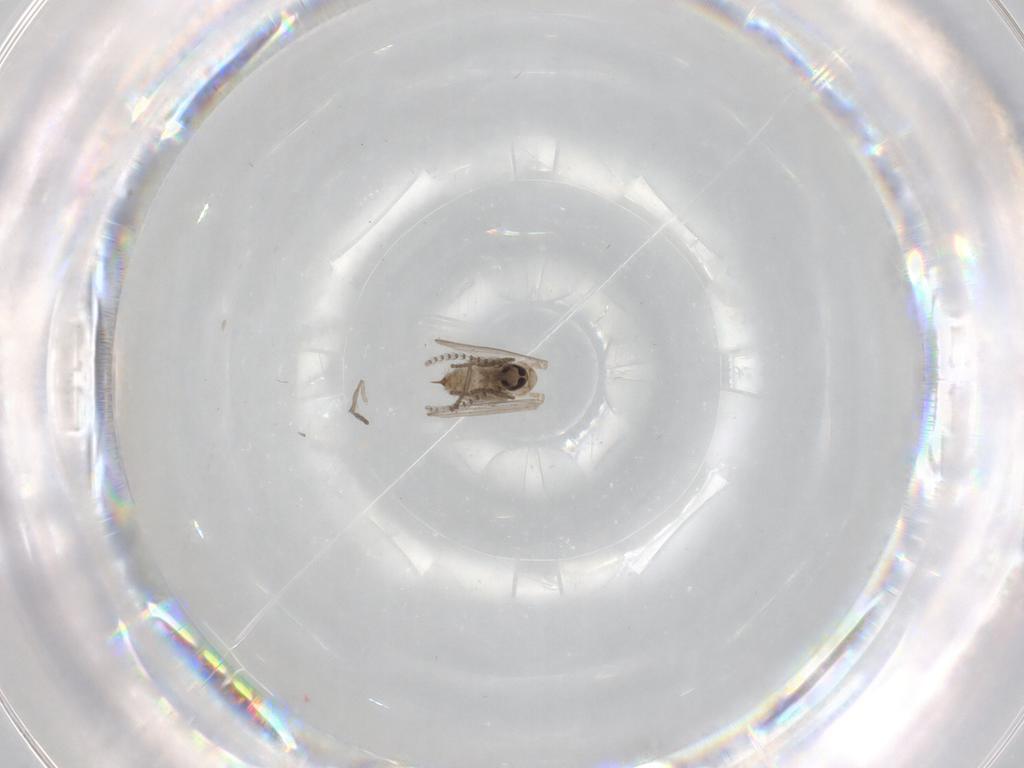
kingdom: Animalia
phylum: Arthropoda
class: Insecta
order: Diptera
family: Psychodidae
